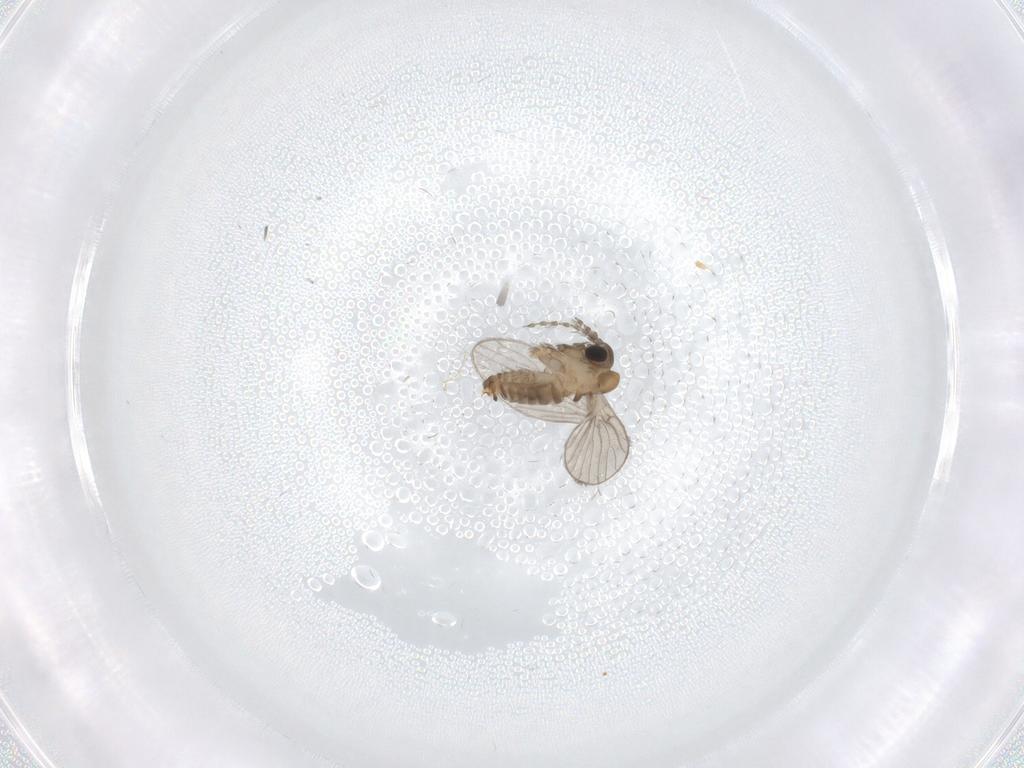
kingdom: Animalia
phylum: Arthropoda
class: Insecta
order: Diptera
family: Psychodidae
